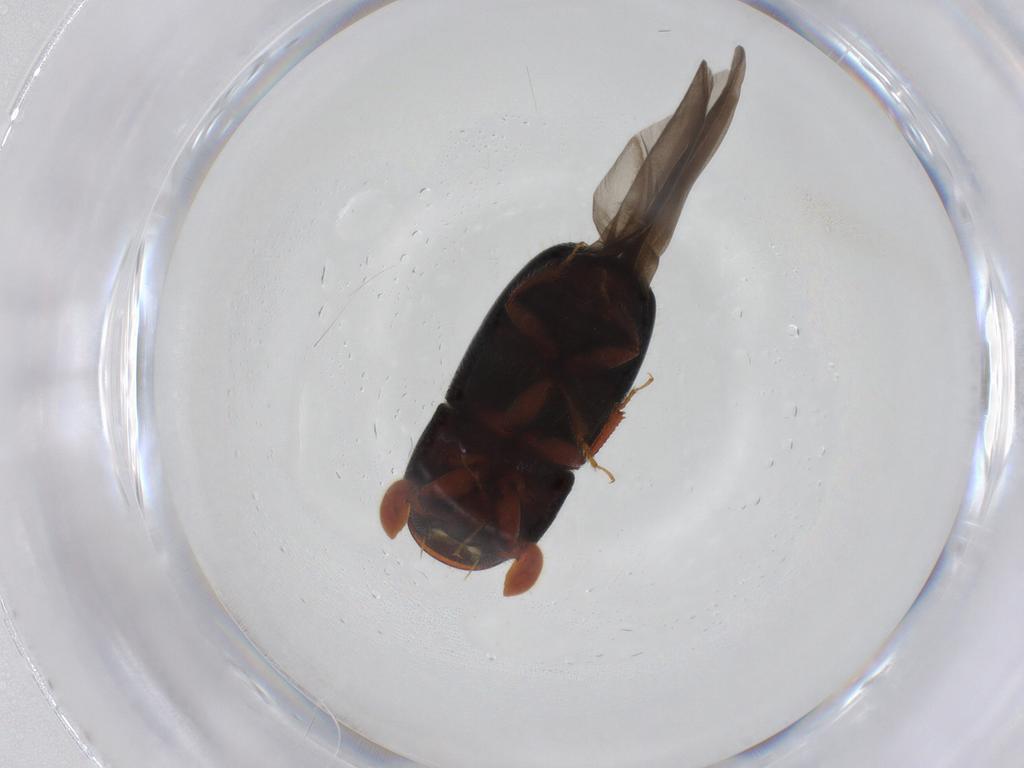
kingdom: Animalia
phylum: Arthropoda
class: Insecta
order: Coleoptera
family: Curculionidae
